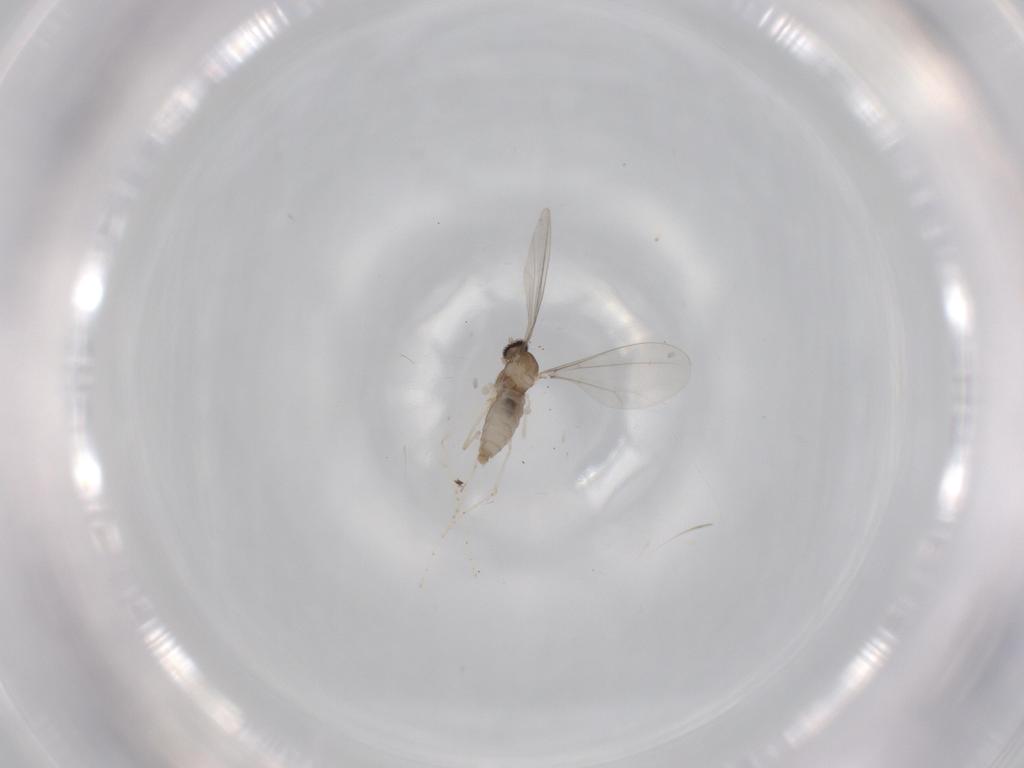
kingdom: Animalia
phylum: Arthropoda
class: Insecta
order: Diptera
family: Cecidomyiidae
